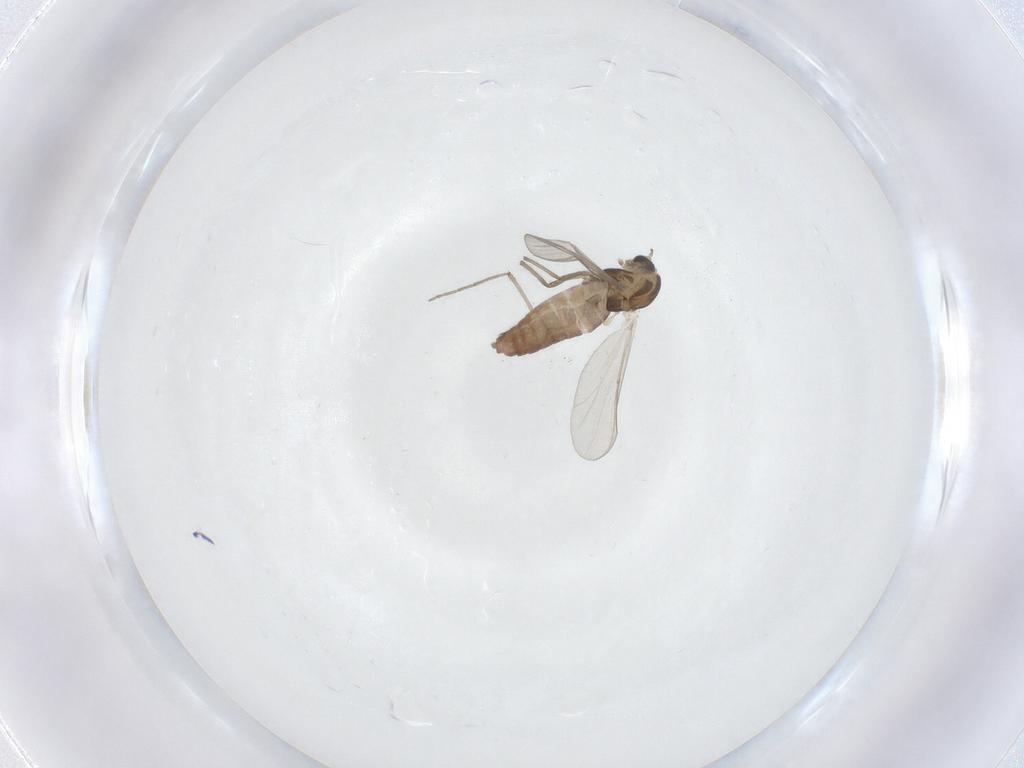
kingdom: Animalia
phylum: Arthropoda
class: Insecta
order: Diptera
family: Chironomidae
